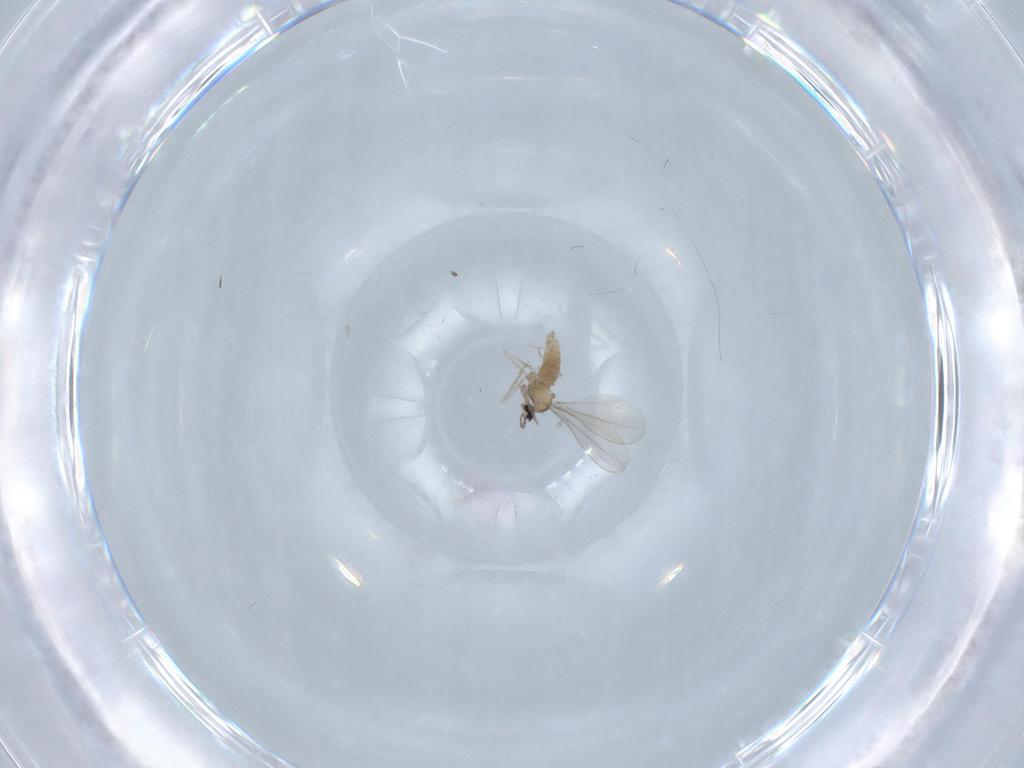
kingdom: Animalia
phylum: Arthropoda
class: Insecta
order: Diptera
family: Cecidomyiidae
